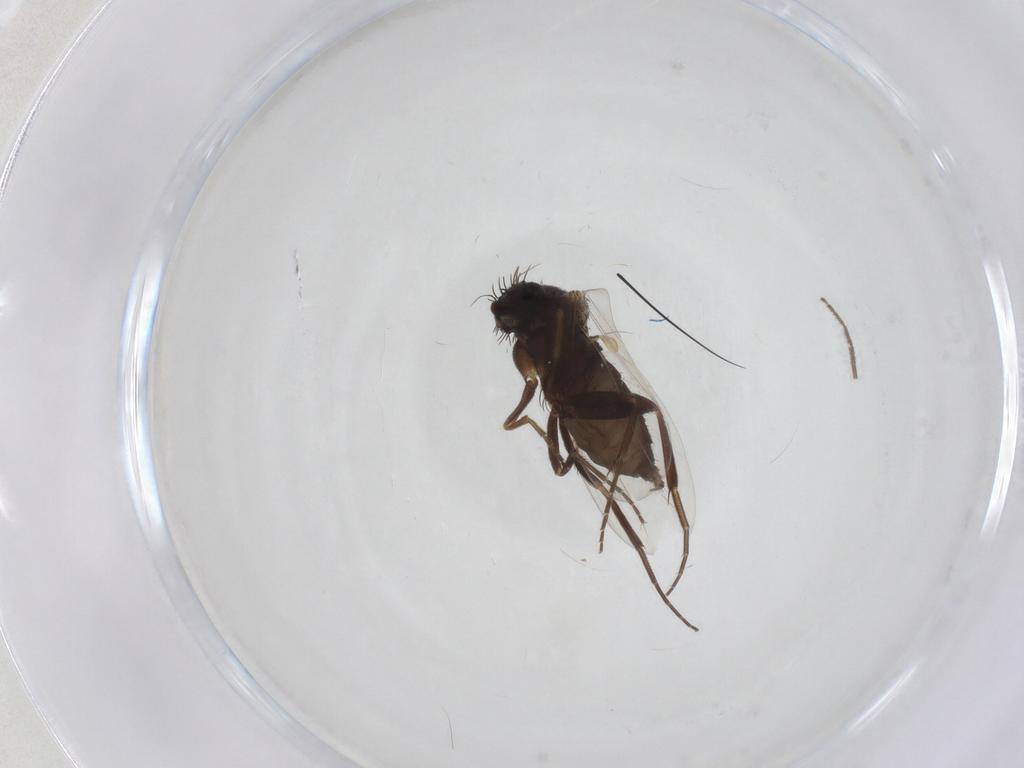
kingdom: Animalia
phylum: Arthropoda
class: Insecta
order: Diptera
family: Phoridae
